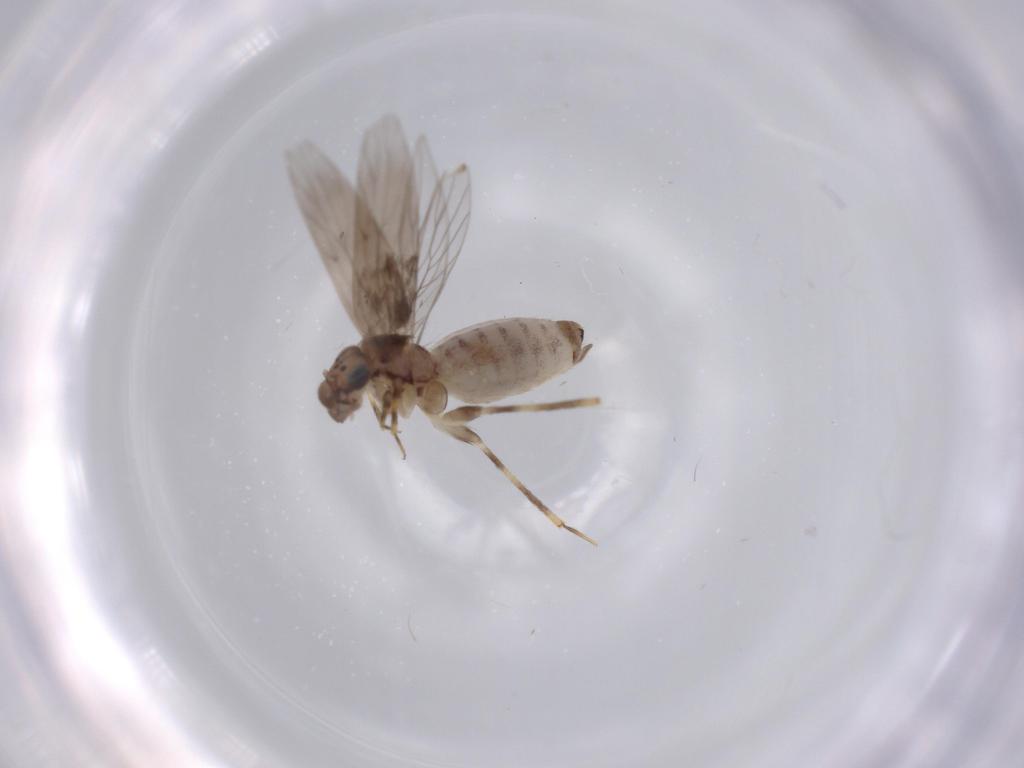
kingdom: Animalia
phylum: Arthropoda
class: Insecta
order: Psocodea
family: Lepidopsocidae
